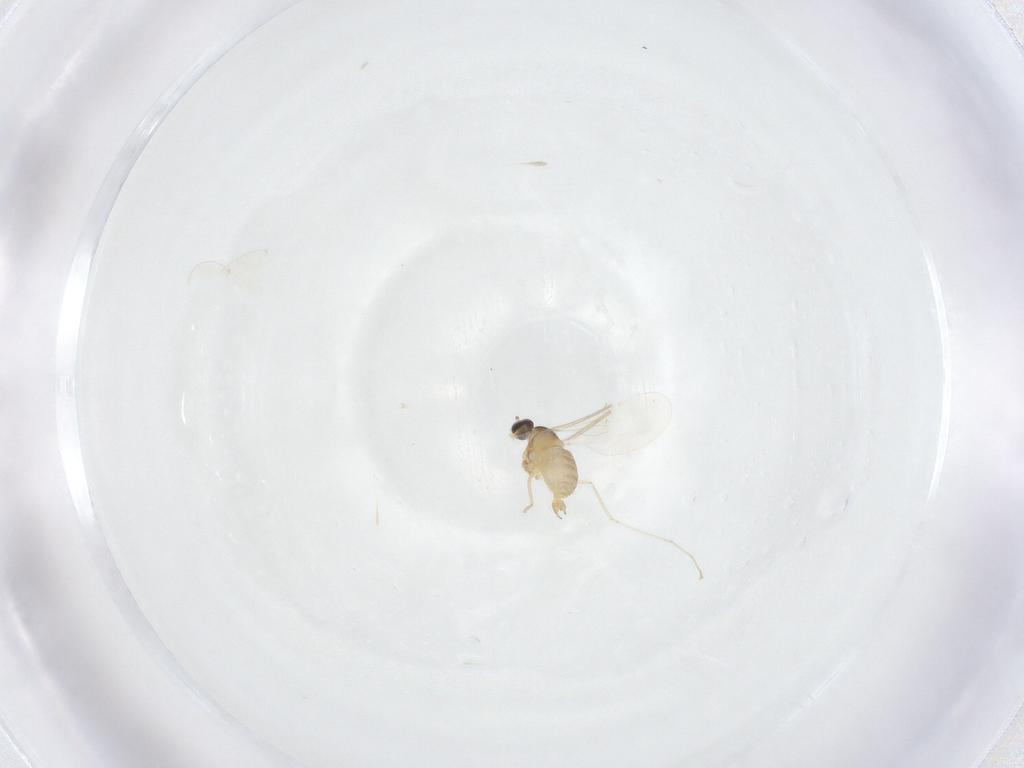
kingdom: Animalia
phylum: Arthropoda
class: Insecta
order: Diptera
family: Cecidomyiidae
